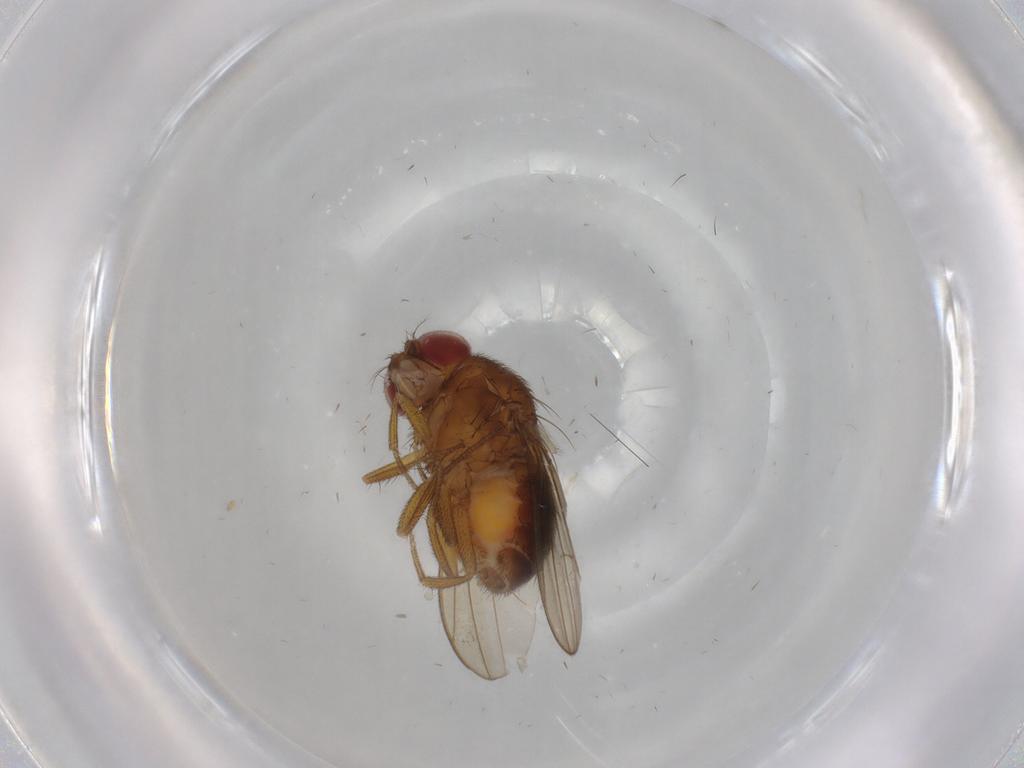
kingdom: Animalia
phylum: Arthropoda
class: Insecta
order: Diptera
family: Drosophilidae
